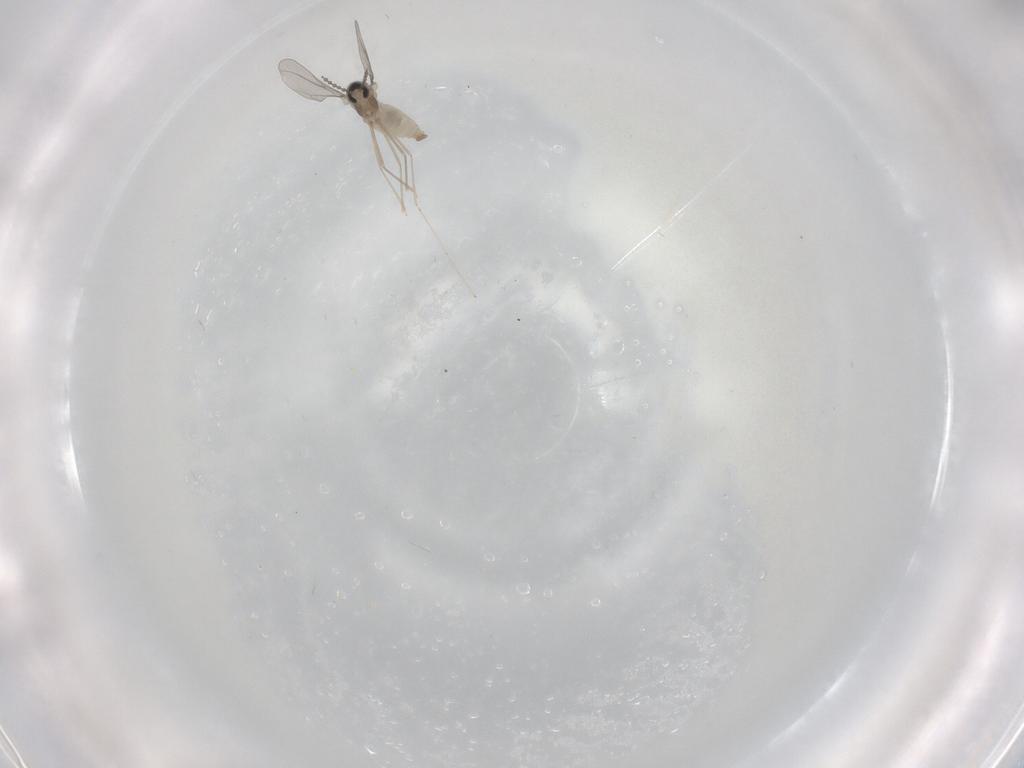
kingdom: Animalia
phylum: Arthropoda
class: Insecta
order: Diptera
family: Cecidomyiidae
